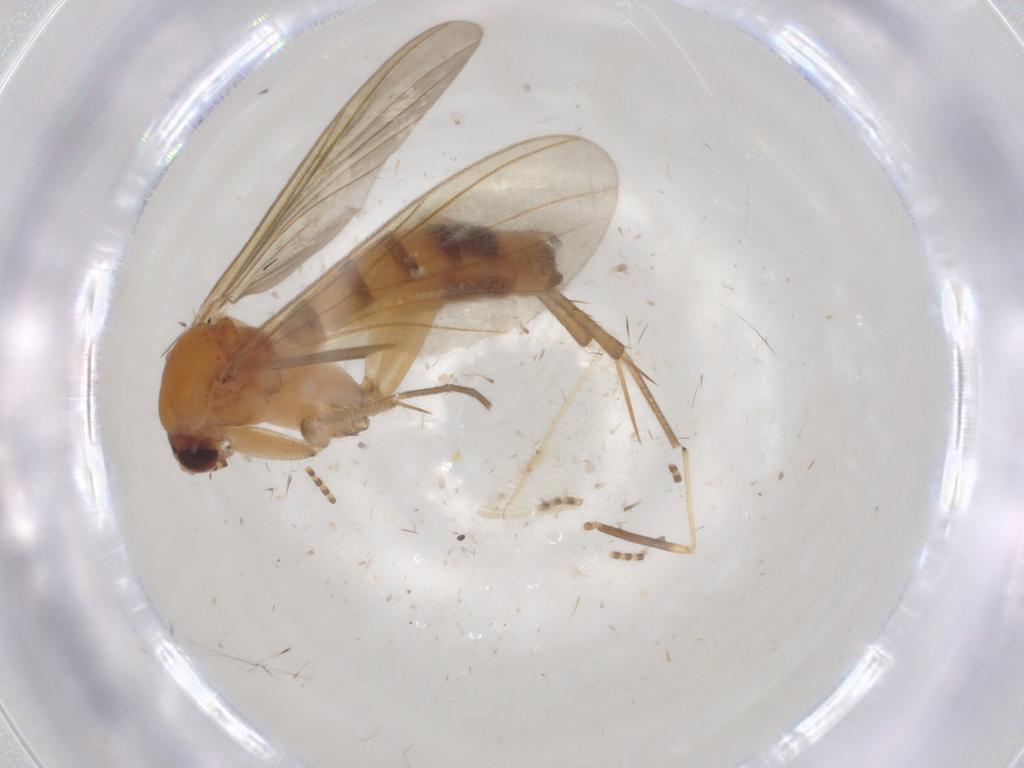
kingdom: Animalia
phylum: Arthropoda
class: Insecta
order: Diptera
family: Mycetophilidae
